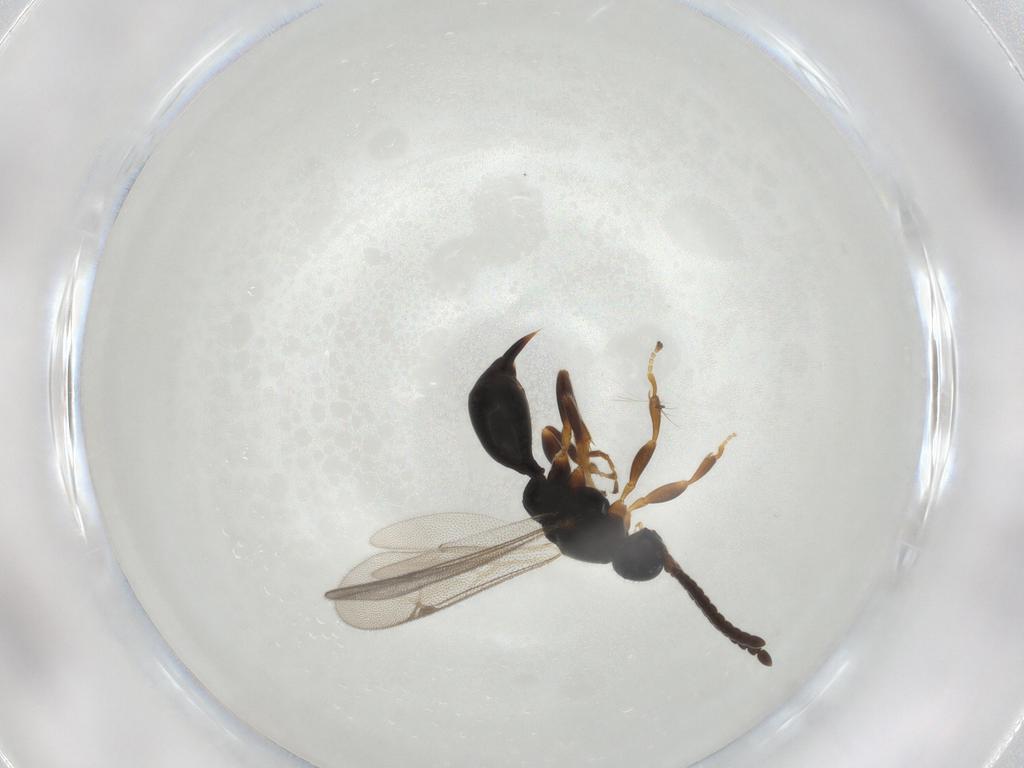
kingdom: Animalia
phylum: Arthropoda
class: Insecta
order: Hymenoptera
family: Proctotrupidae
